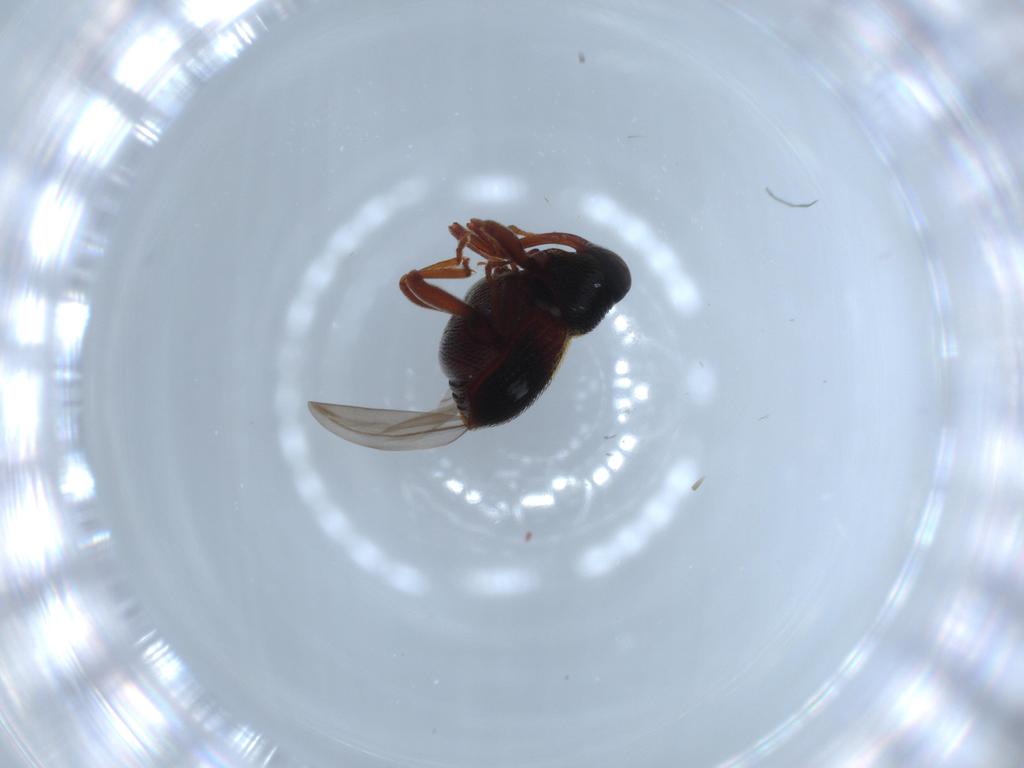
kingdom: Animalia
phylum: Arthropoda
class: Insecta
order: Coleoptera
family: Curculionidae
